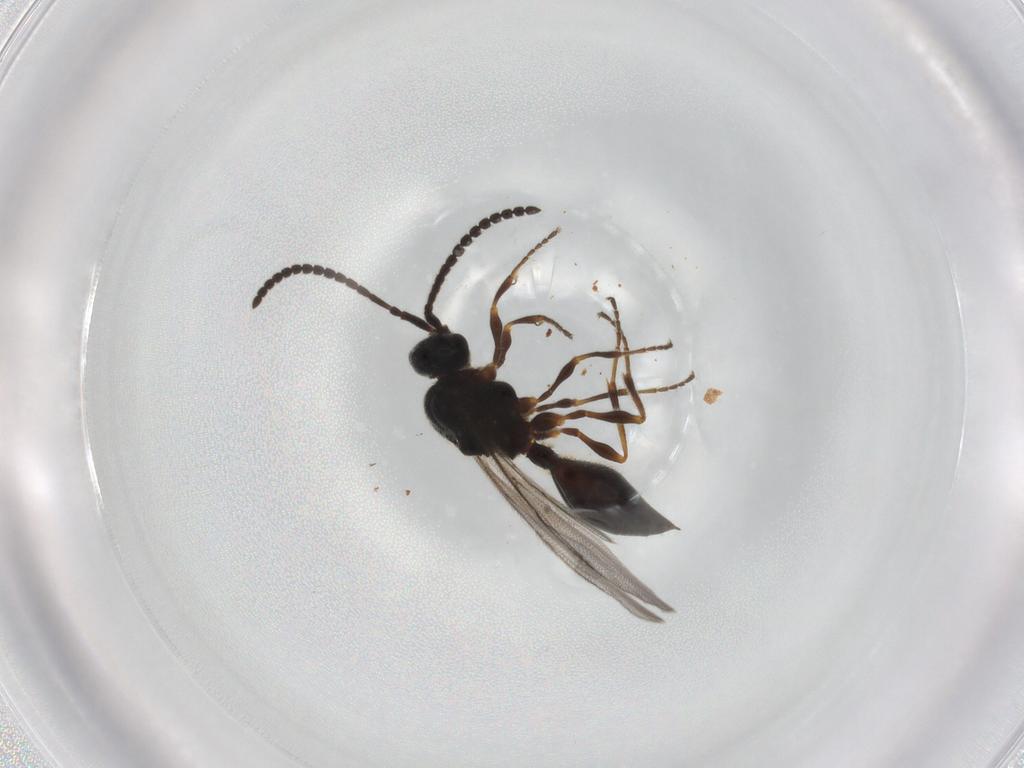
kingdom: Animalia
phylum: Arthropoda
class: Insecta
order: Hymenoptera
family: Diapriidae
